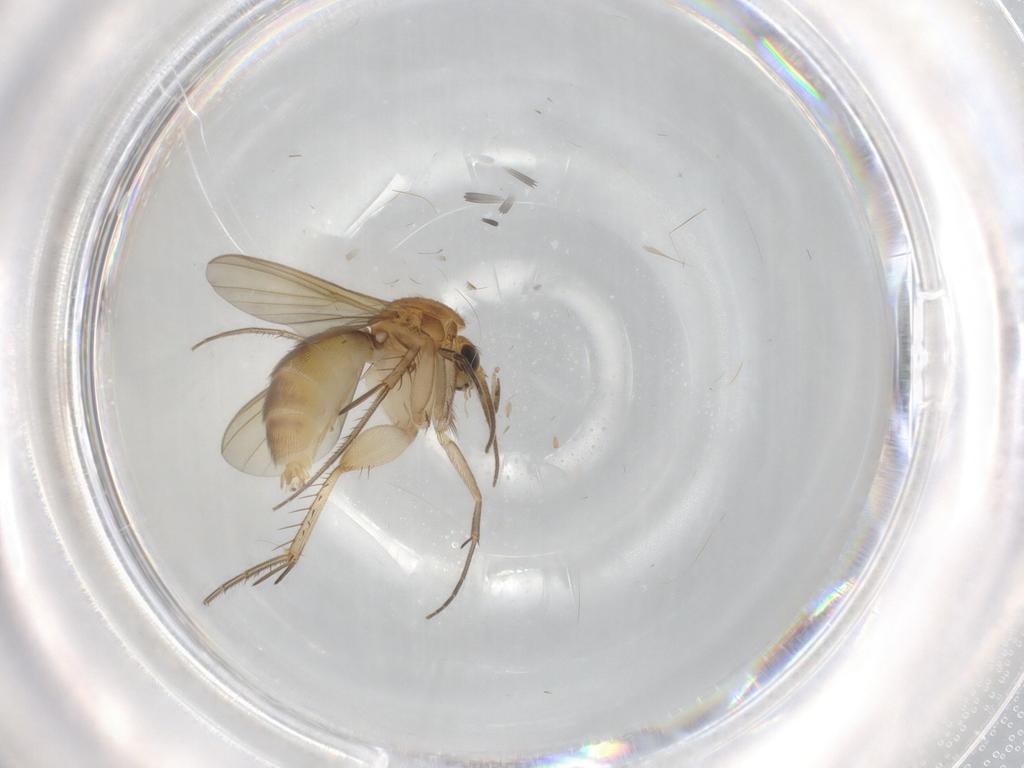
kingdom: Animalia
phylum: Arthropoda
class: Insecta
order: Diptera
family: Mycetophilidae
